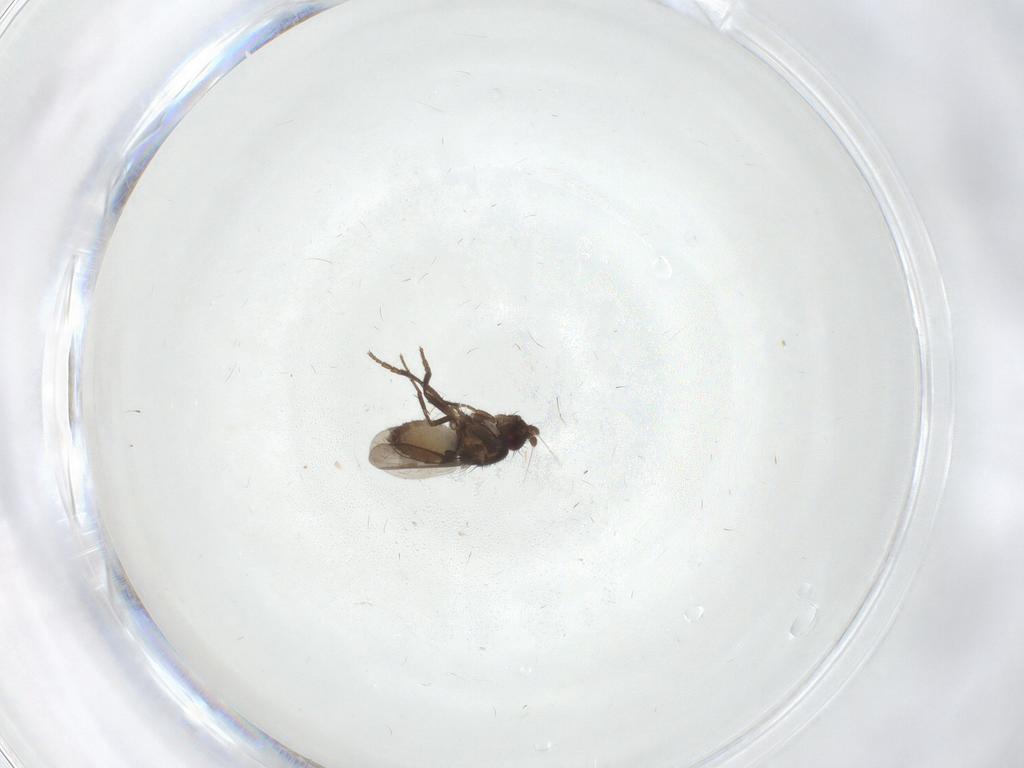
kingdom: Animalia
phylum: Arthropoda
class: Insecta
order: Diptera
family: Sphaeroceridae
